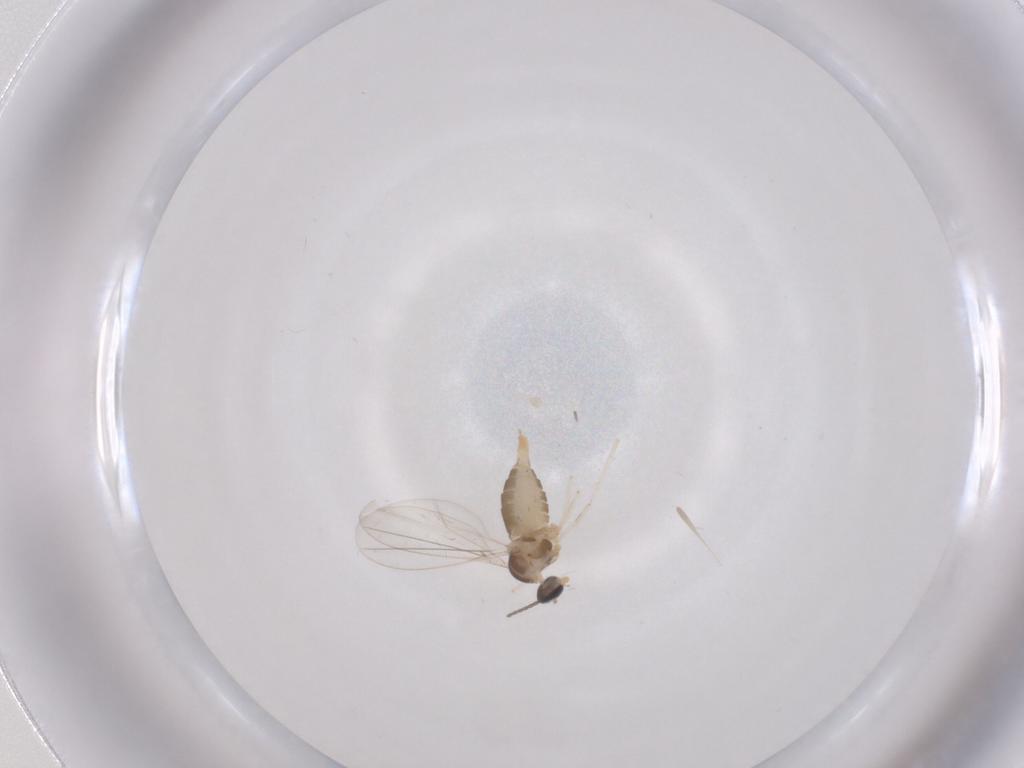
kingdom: Animalia
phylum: Arthropoda
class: Insecta
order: Diptera
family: Cecidomyiidae
